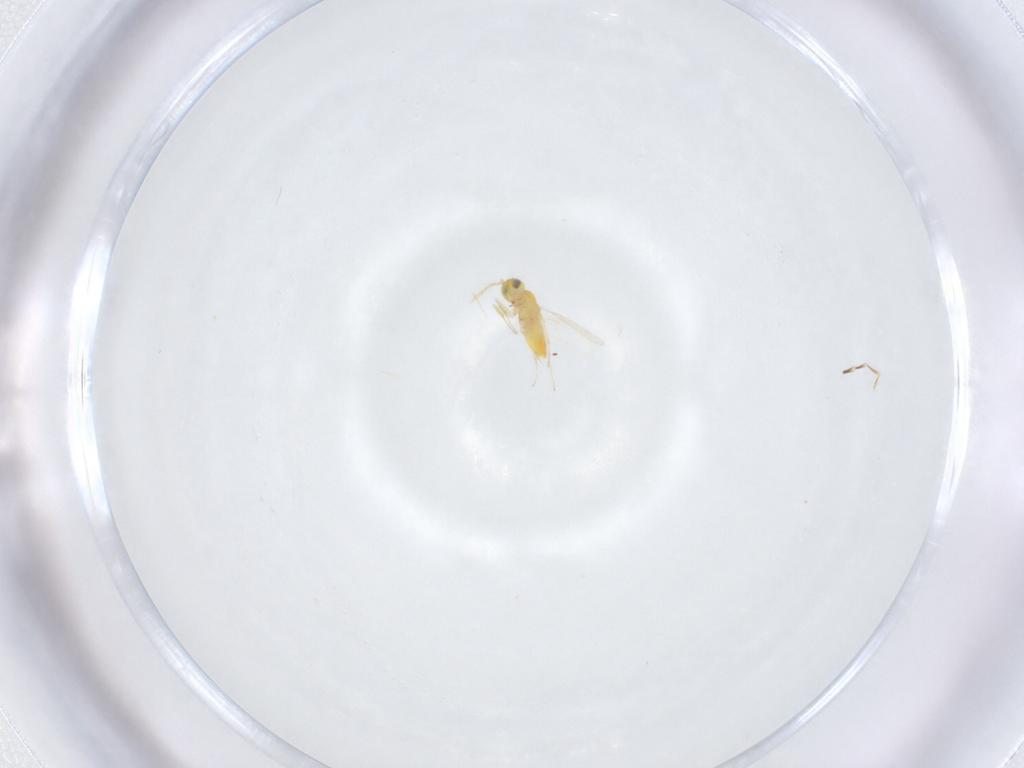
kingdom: Animalia
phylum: Arthropoda
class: Insecta
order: Hymenoptera
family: Aphelinidae
